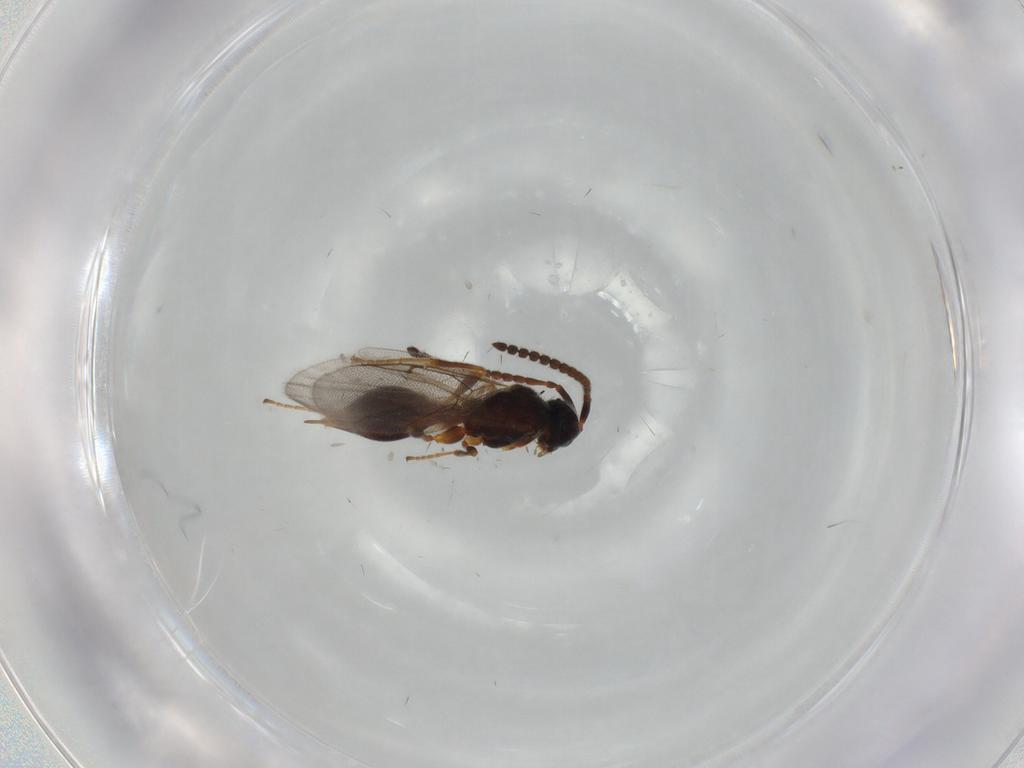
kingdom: Animalia
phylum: Arthropoda
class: Insecta
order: Hymenoptera
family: Diapriidae
